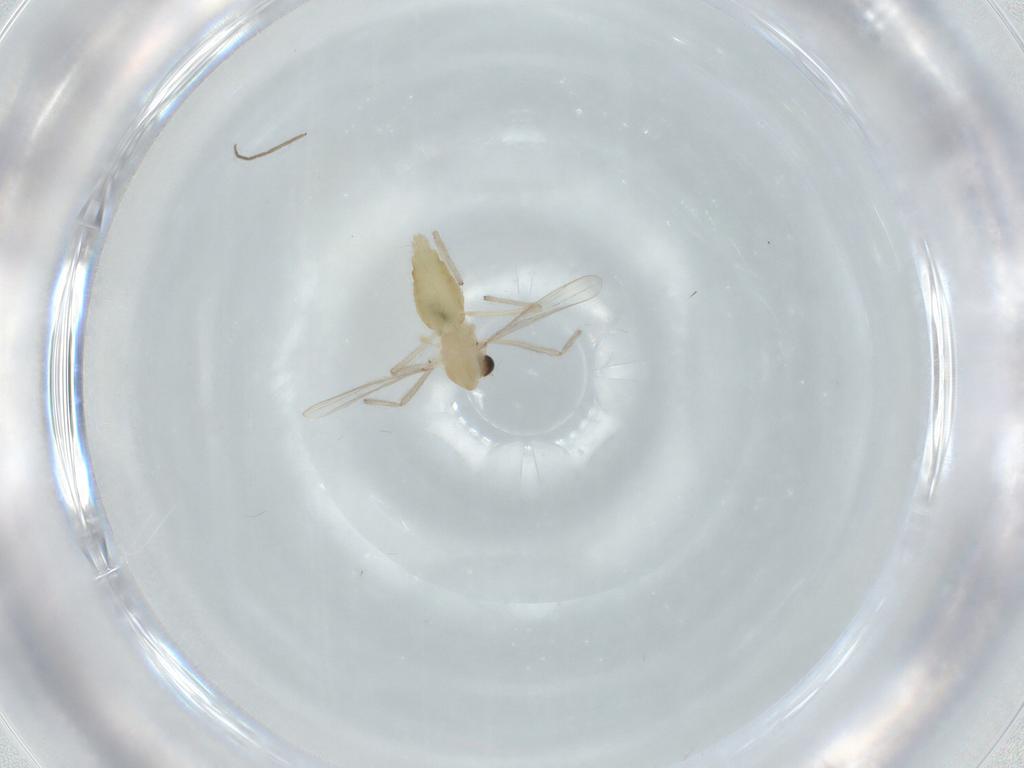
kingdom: Animalia
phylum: Arthropoda
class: Insecta
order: Diptera
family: Chironomidae
